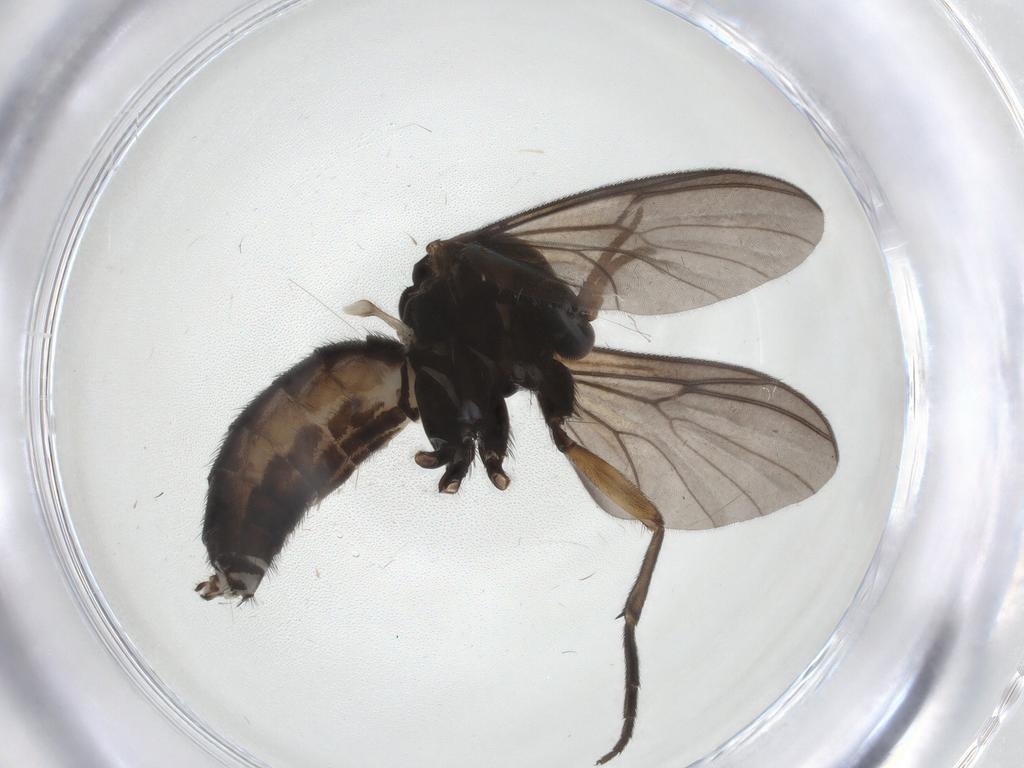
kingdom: Animalia
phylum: Arthropoda
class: Insecta
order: Diptera
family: Mycetophilidae
